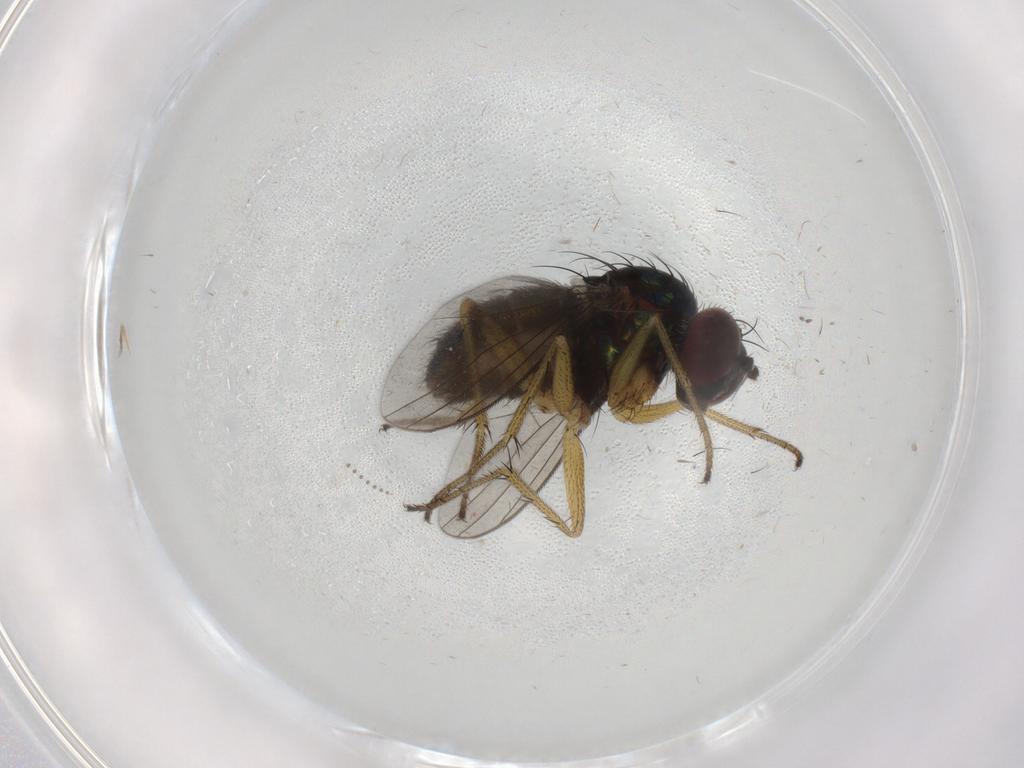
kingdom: Animalia
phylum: Arthropoda
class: Insecta
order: Diptera
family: Dolichopodidae
